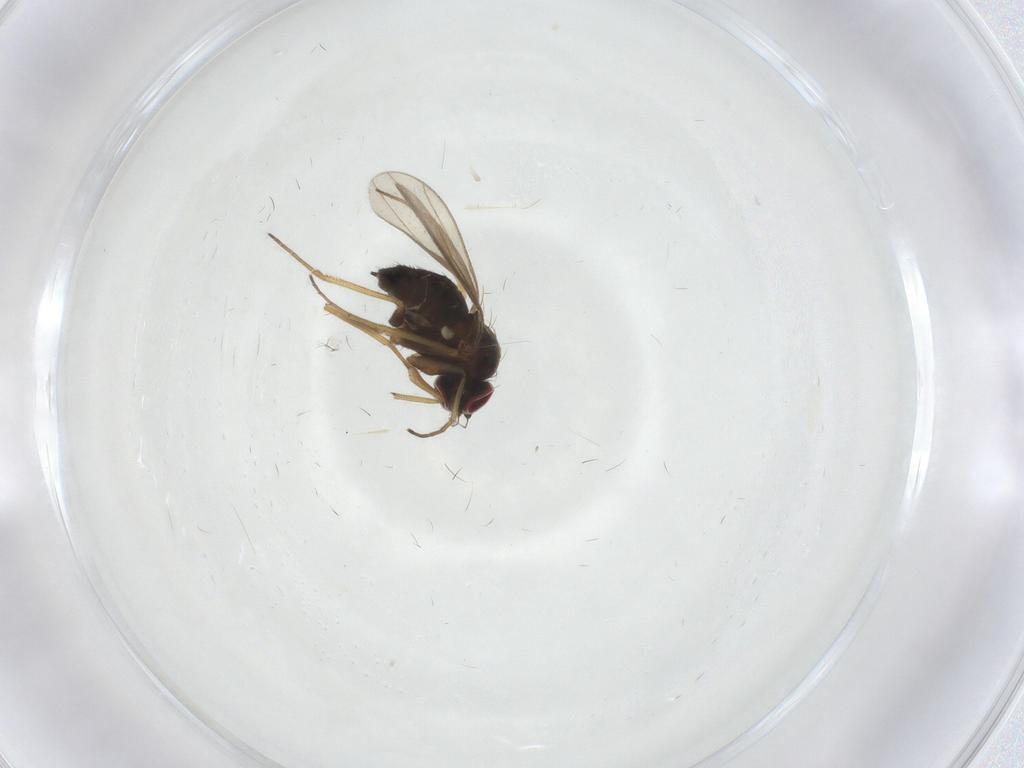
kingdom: Animalia
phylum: Arthropoda
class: Insecta
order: Diptera
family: Dolichopodidae
